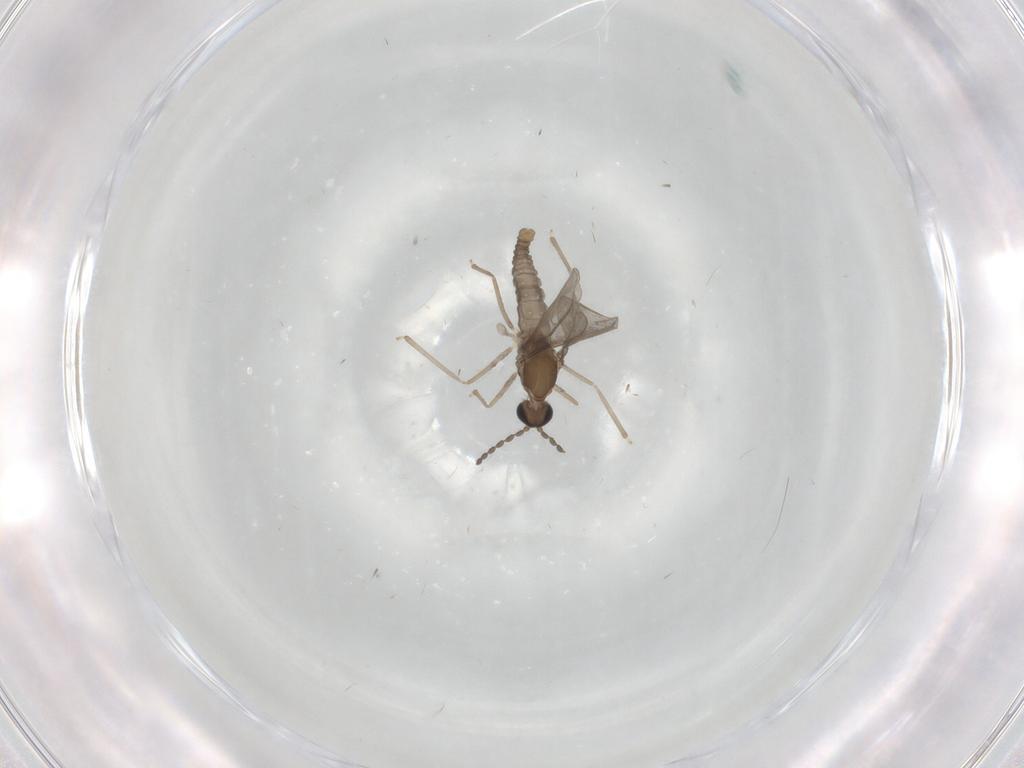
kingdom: Animalia
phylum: Arthropoda
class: Insecta
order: Diptera
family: Cecidomyiidae
